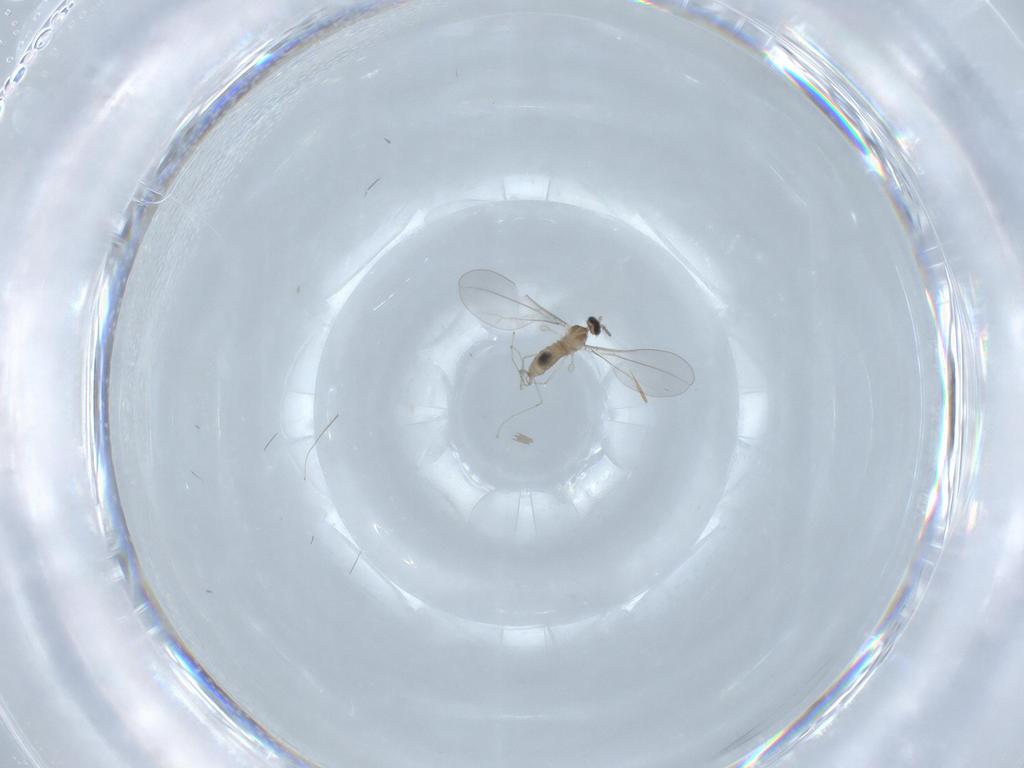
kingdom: Animalia
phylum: Arthropoda
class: Insecta
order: Diptera
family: Cecidomyiidae
